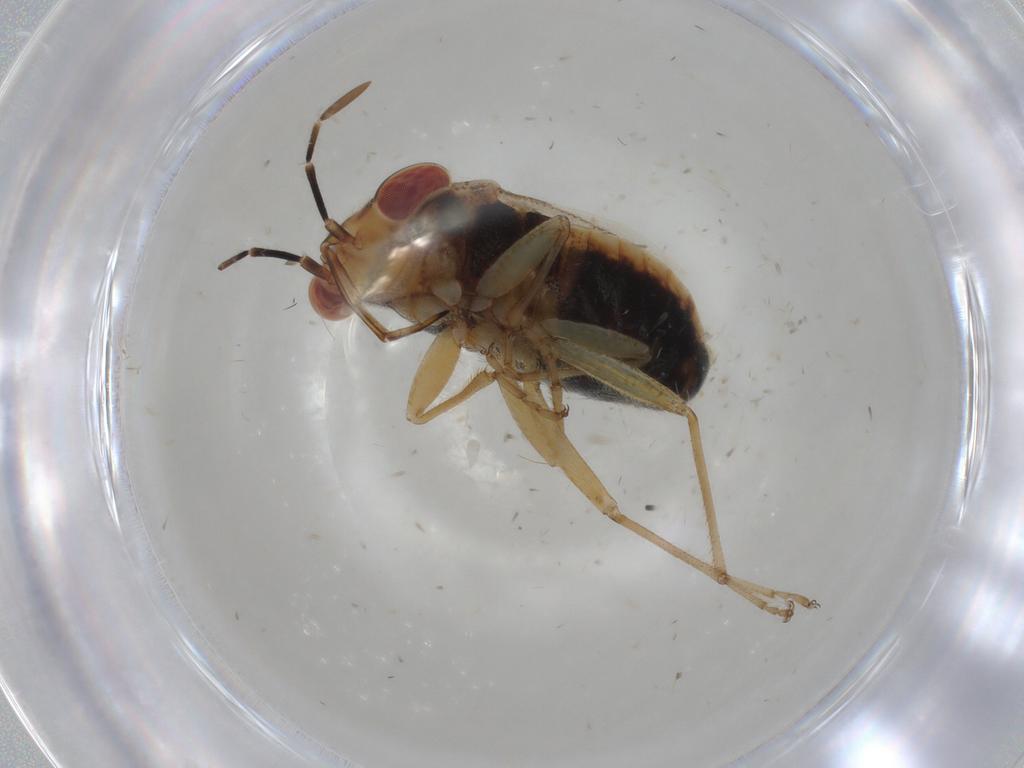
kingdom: Animalia
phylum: Arthropoda
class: Insecta
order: Hemiptera
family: Geocoridae
